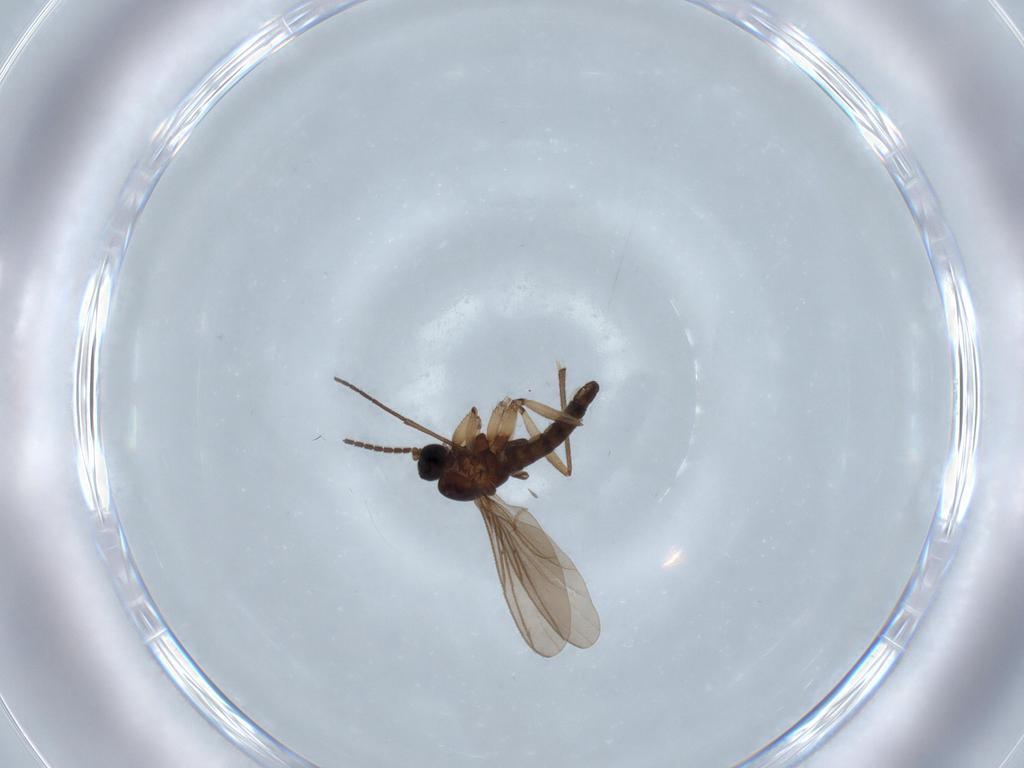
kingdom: Animalia
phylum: Arthropoda
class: Insecta
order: Diptera
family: Sciaridae
